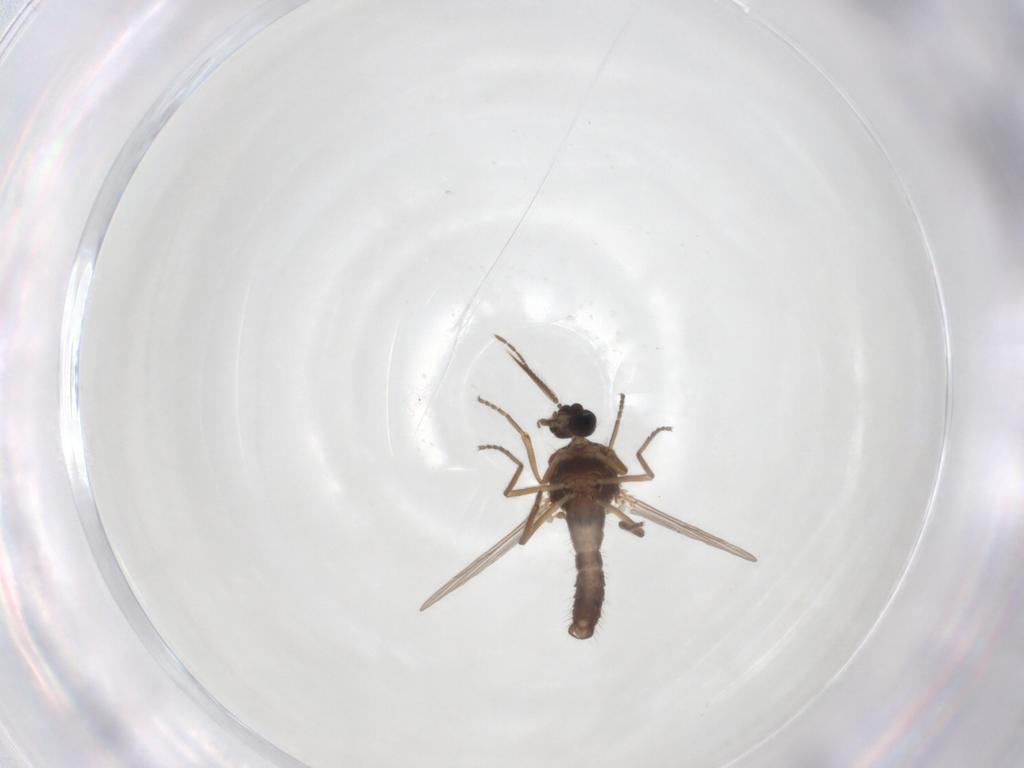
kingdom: Animalia
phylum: Arthropoda
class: Insecta
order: Diptera
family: Ceratopogonidae
